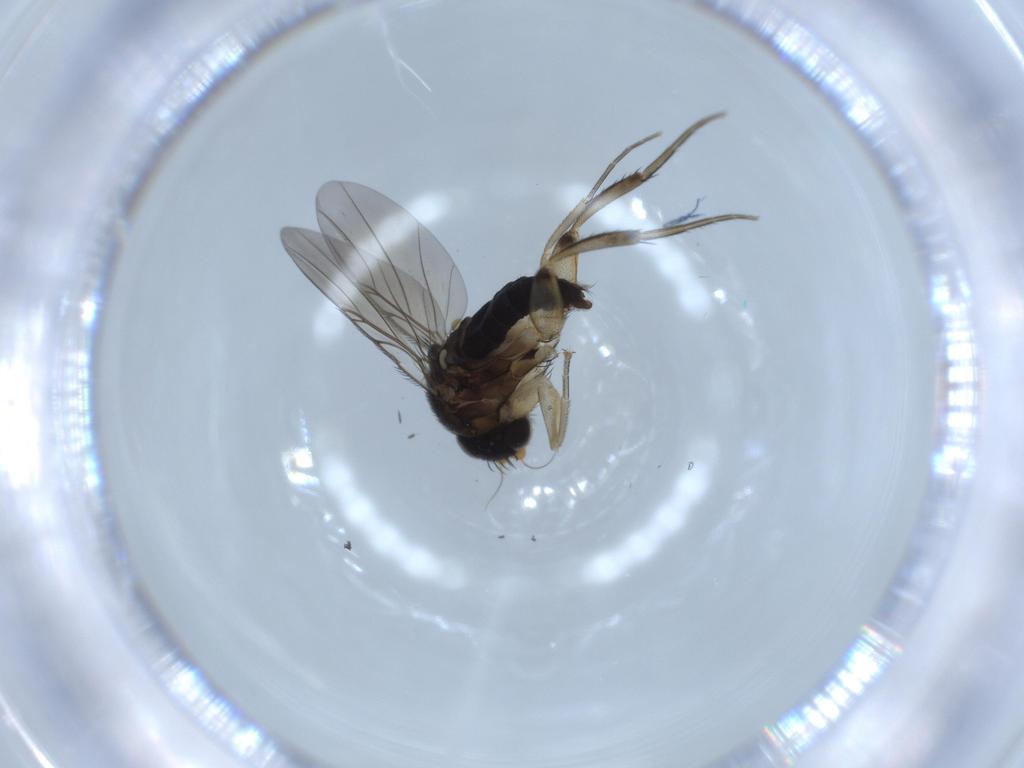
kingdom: Animalia
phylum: Arthropoda
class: Insecta
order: Diptera
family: Phoridae
